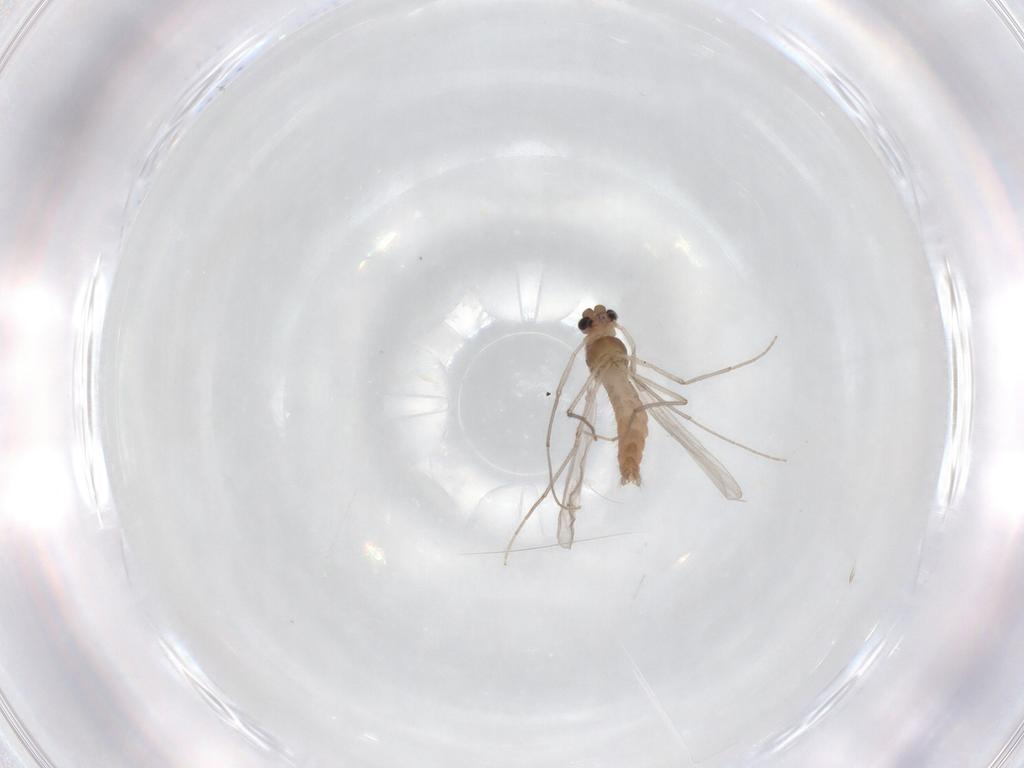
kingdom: Animalia
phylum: Arthropoda
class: Insecta
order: Diptera
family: Chironomidae
